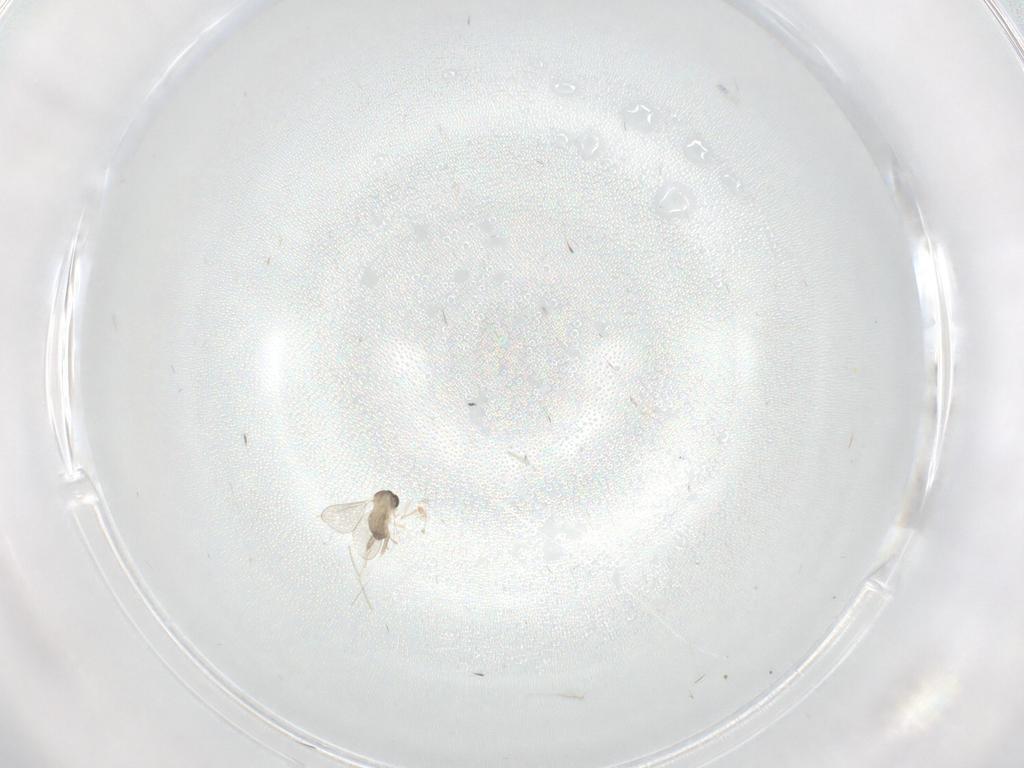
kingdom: Animalia
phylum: Arthropoda
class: Insecta
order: Diptera
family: Cecidomyiidae
